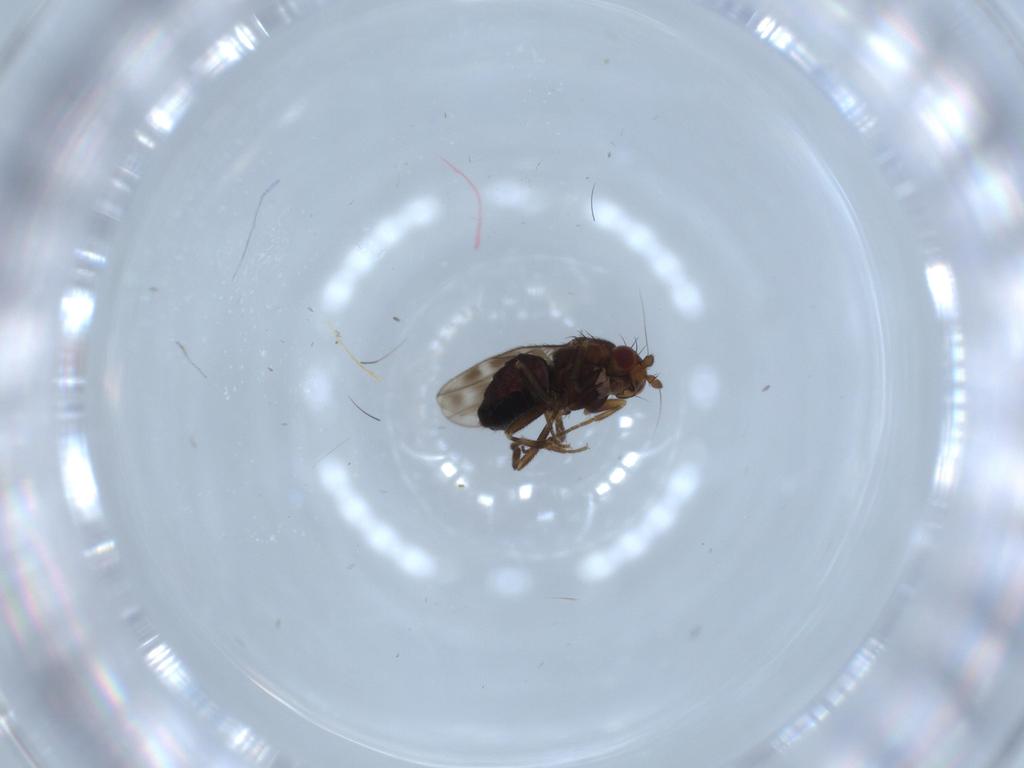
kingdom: Animalia
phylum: Arthropoda
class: Insecta
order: Diptera
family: Sphaeroceridae
